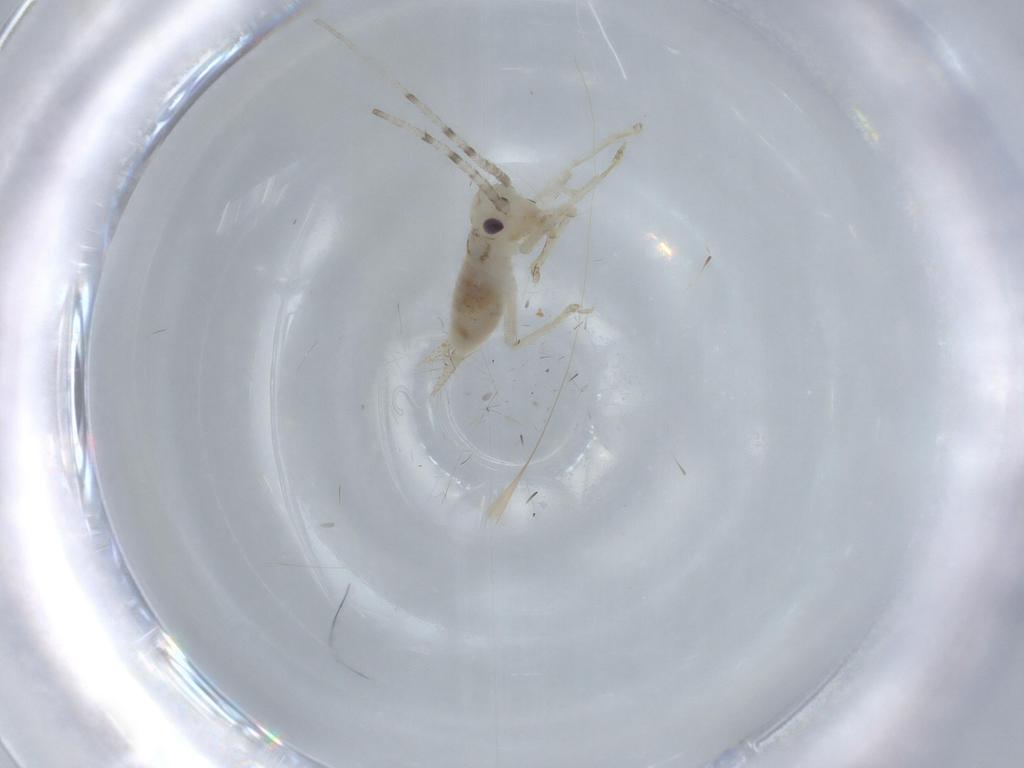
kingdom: Animalia
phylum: Arthropoda
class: Insecta
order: Orthoptera
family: Trigonidiidae
